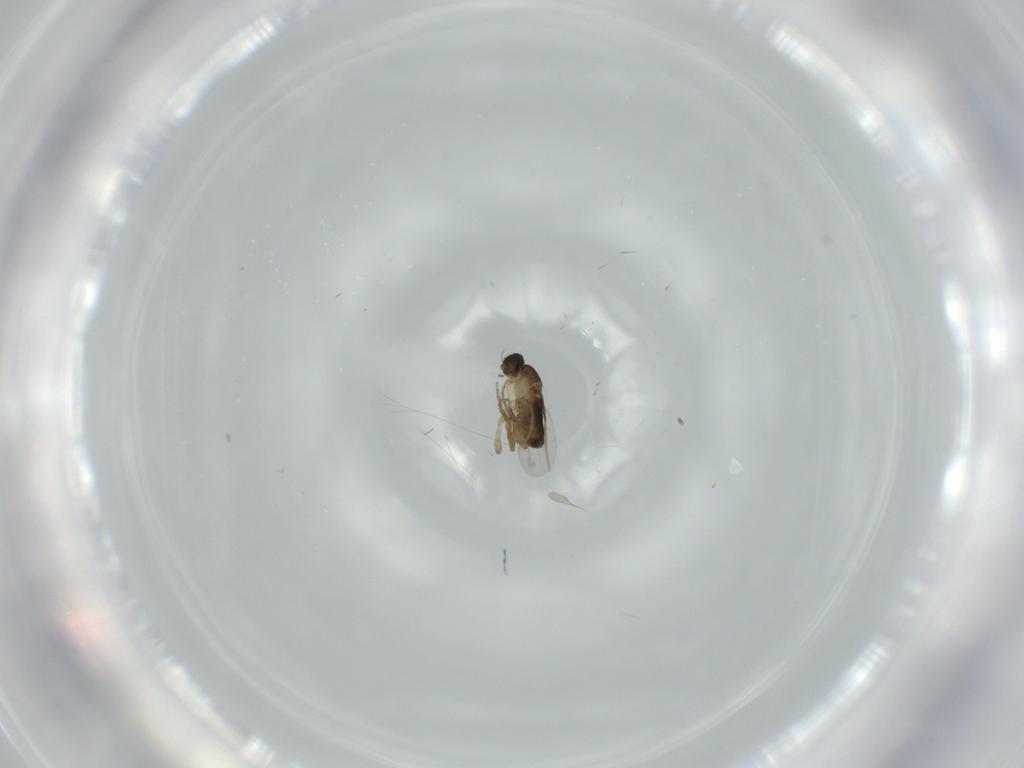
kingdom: Animalia
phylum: Arthropoda
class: Insecta
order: Diptera
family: Phoridae
